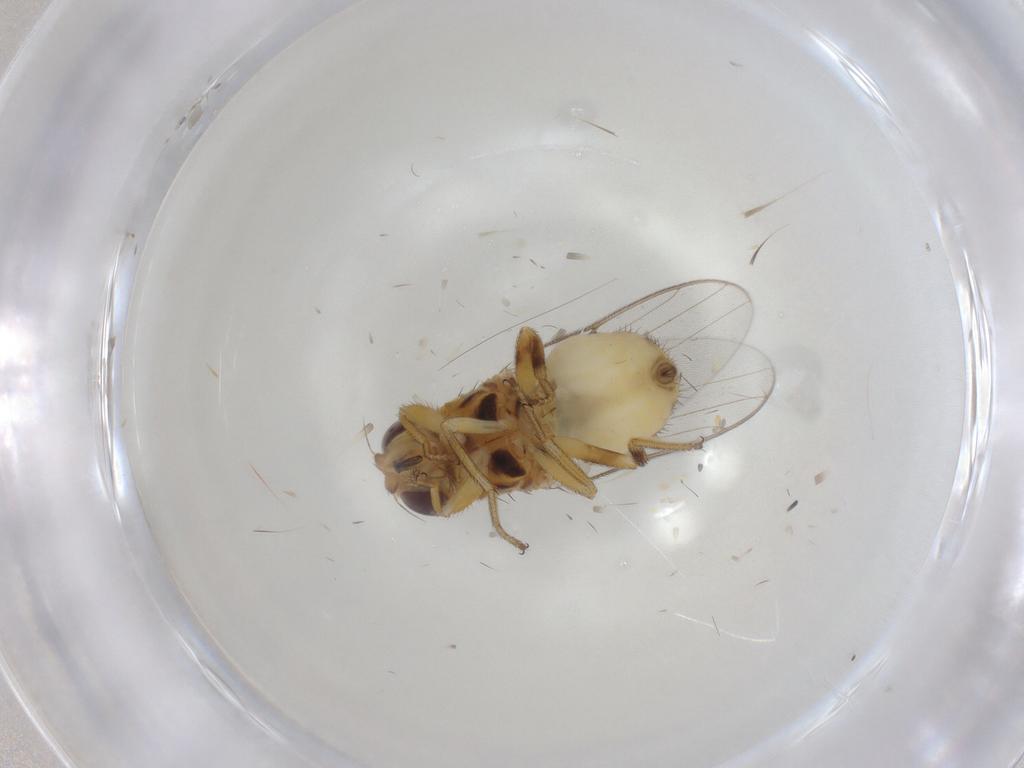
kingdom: Animalia
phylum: Arthropoda
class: Insecta
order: Diptera
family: Chloropidae
